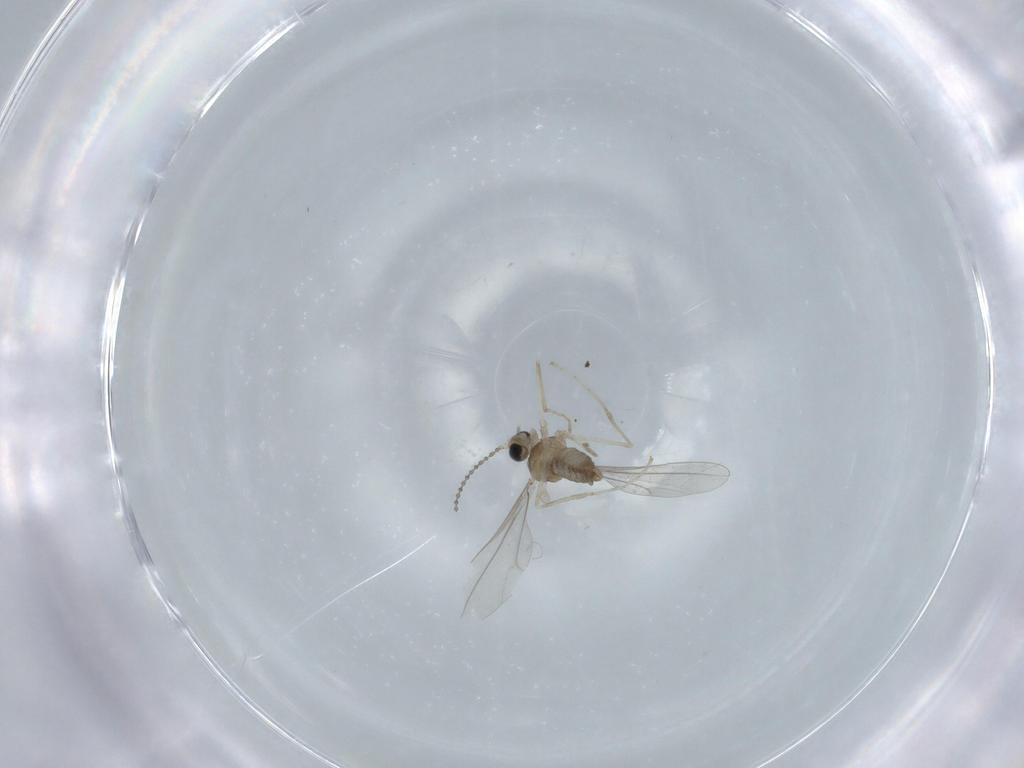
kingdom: Animalia
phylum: Arthropoda
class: Insecta
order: Diptera
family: Cecidomyiidae
